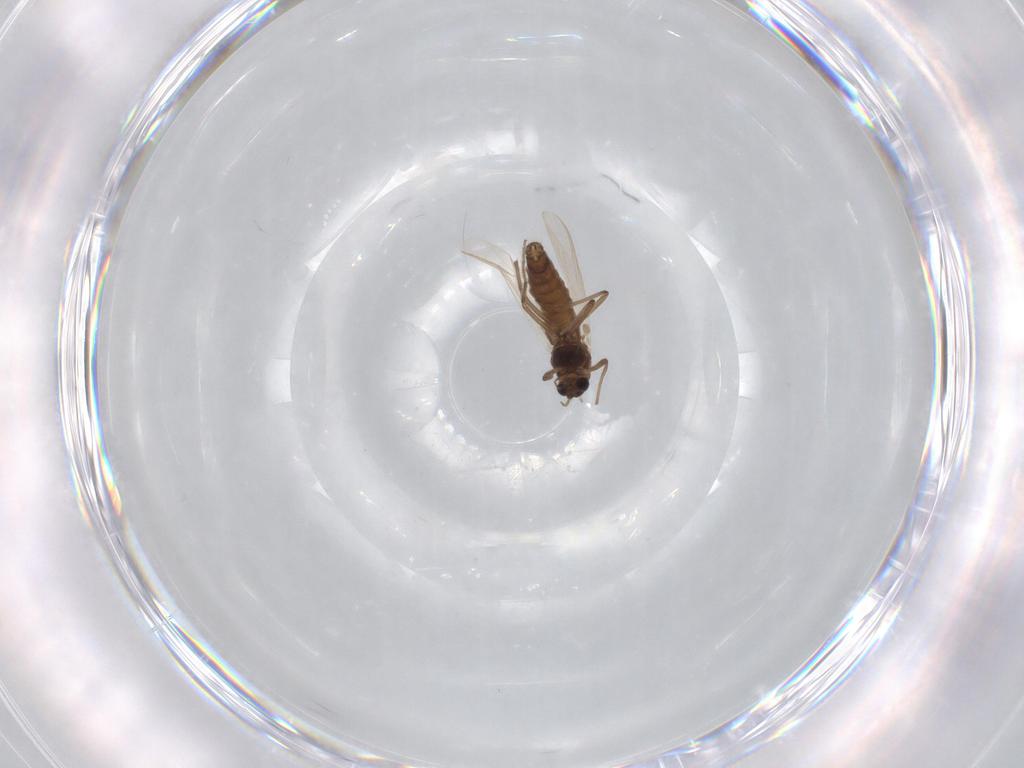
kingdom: Animalia
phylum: Arthropoda
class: Insecta
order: Diptera
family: Chironomidae
